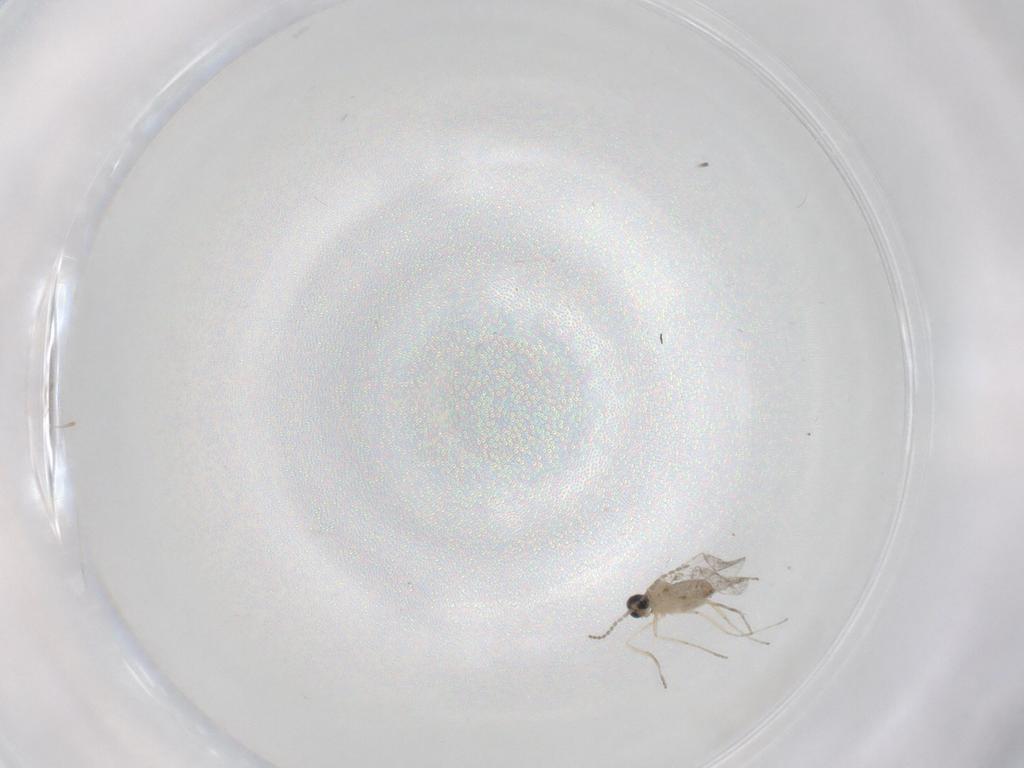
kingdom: Animalia
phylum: Arthropoda
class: Insecta
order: Diptera
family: Cecidomyiidae
